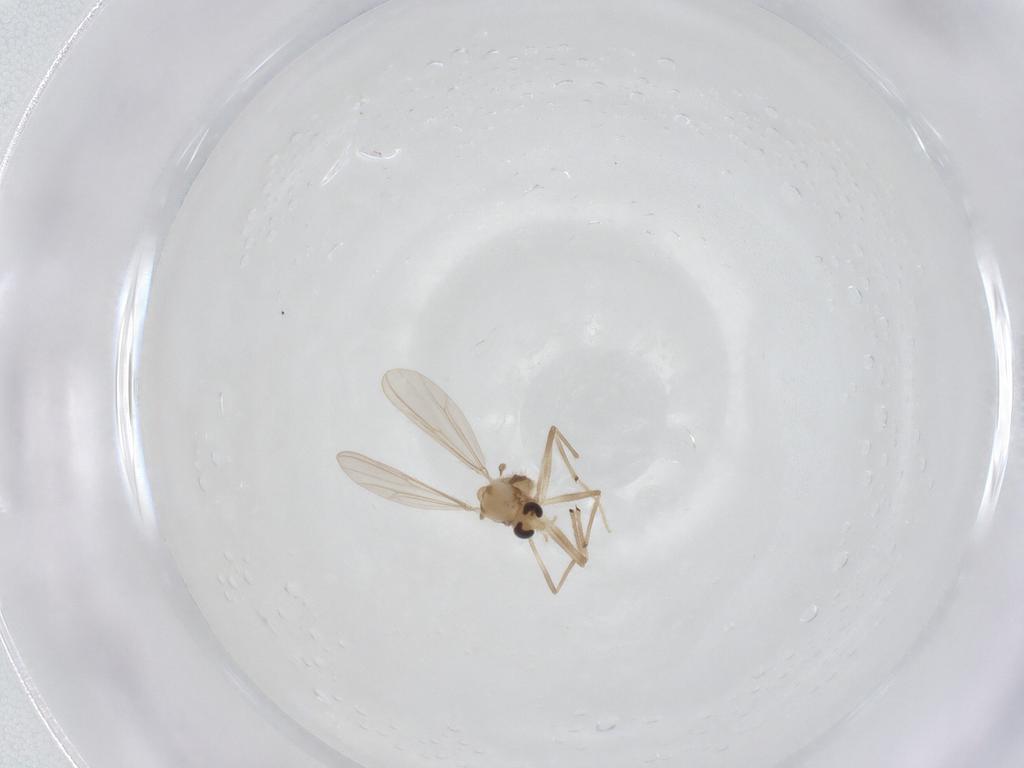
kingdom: Animalia
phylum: Arthropoda
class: Insecta
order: Diptera
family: Chironomidae
